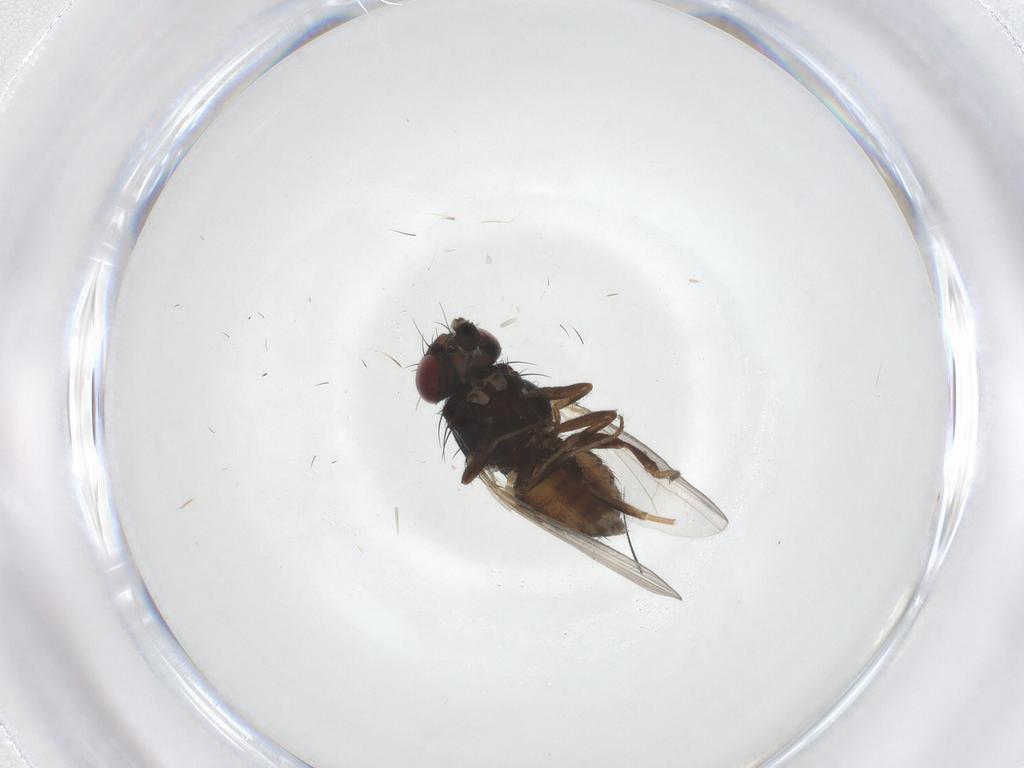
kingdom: Animalia
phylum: Arthropoda
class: Insecta
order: Diptera
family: Carnidae
